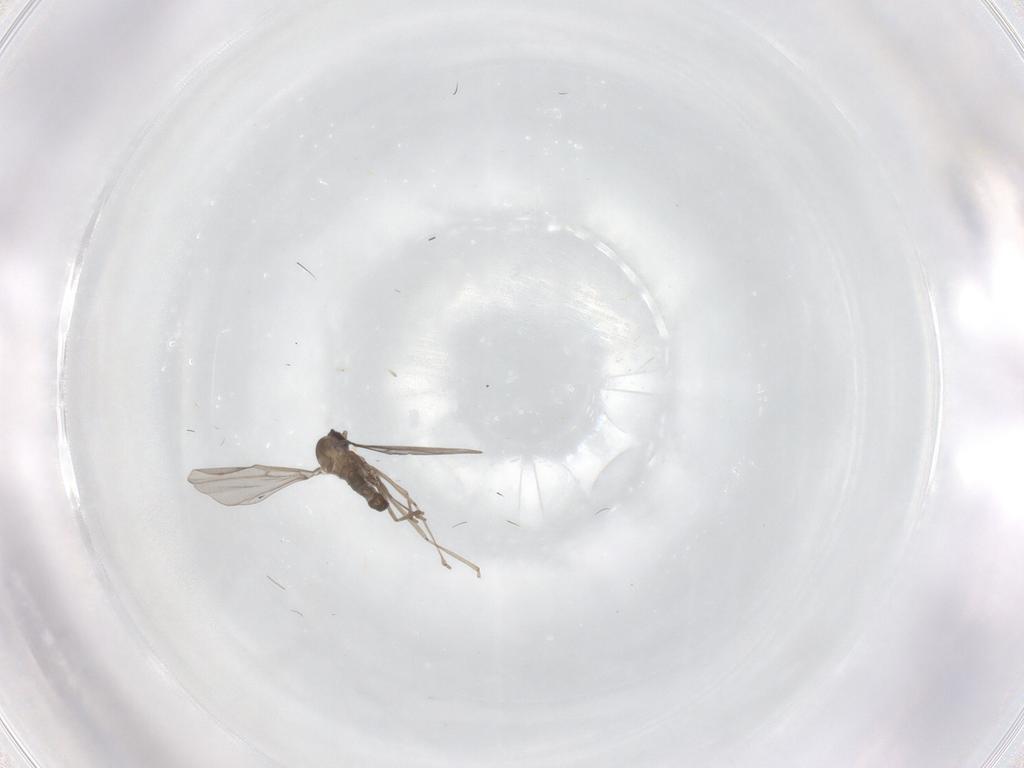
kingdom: Animalia
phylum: Arthropoda
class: Insecta
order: Diptera
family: Cecidomyiidae
